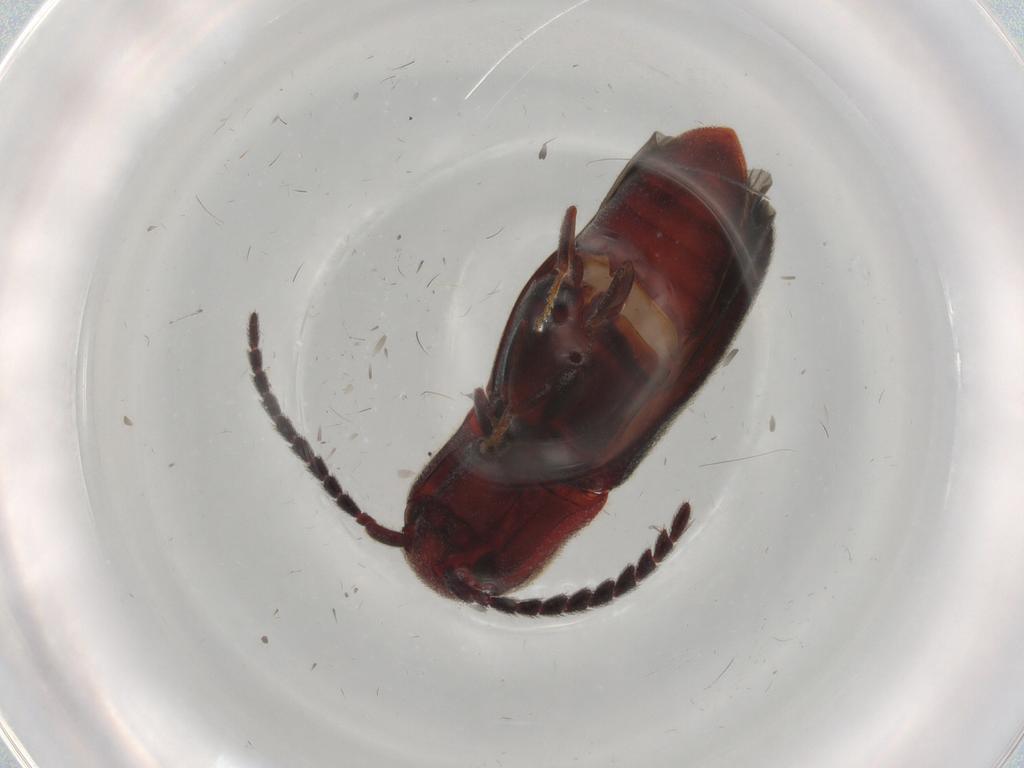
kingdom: Animalia
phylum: Arthropoda
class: Insecta
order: Coleoptera
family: Eucnemidae
